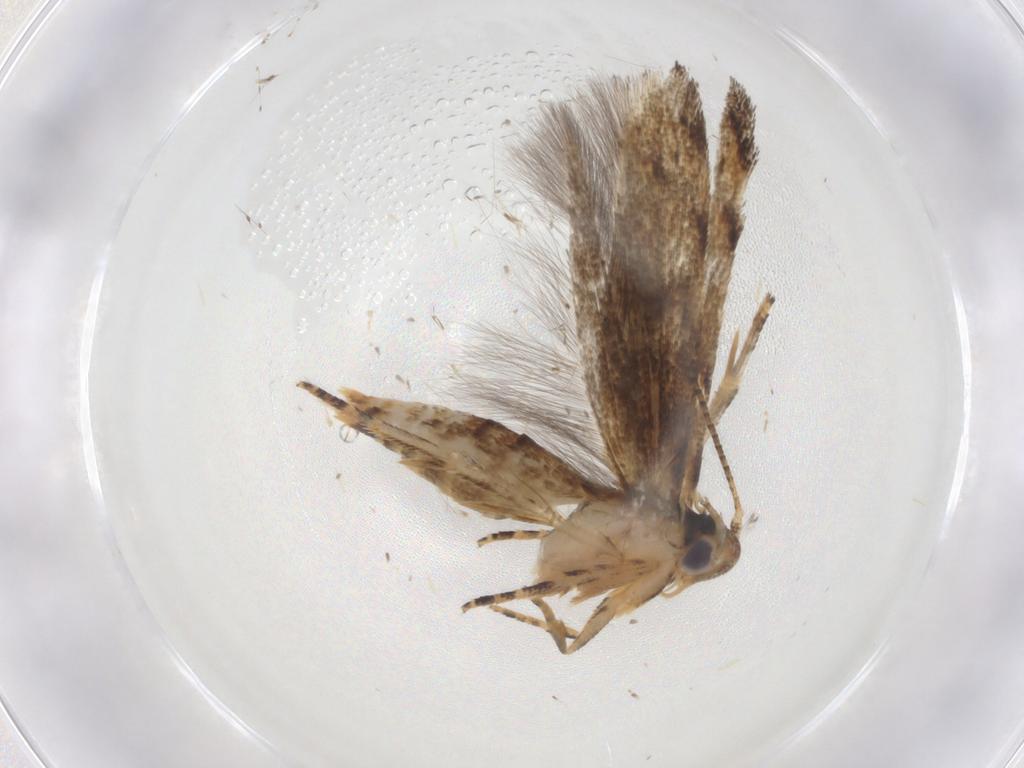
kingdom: Animalia
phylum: Arthropoda
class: Insecta
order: Lepidoptera
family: Momphidae
